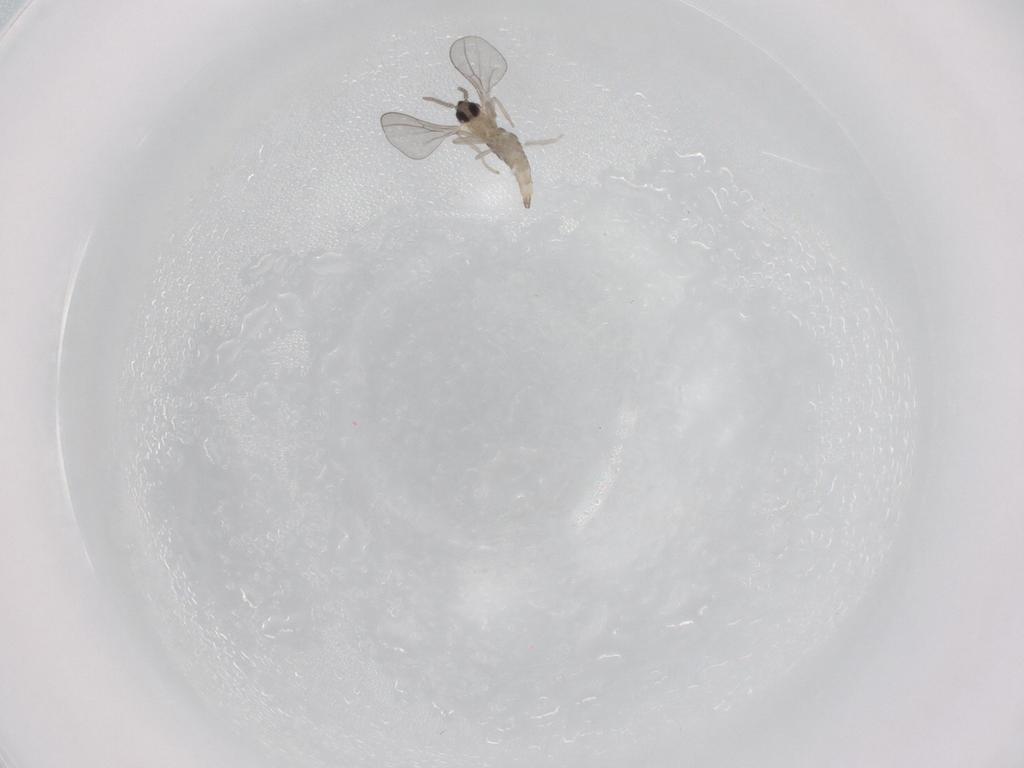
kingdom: Animalia
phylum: Arthropoda
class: Insecta
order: Diptera
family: Cecidomyiidae
